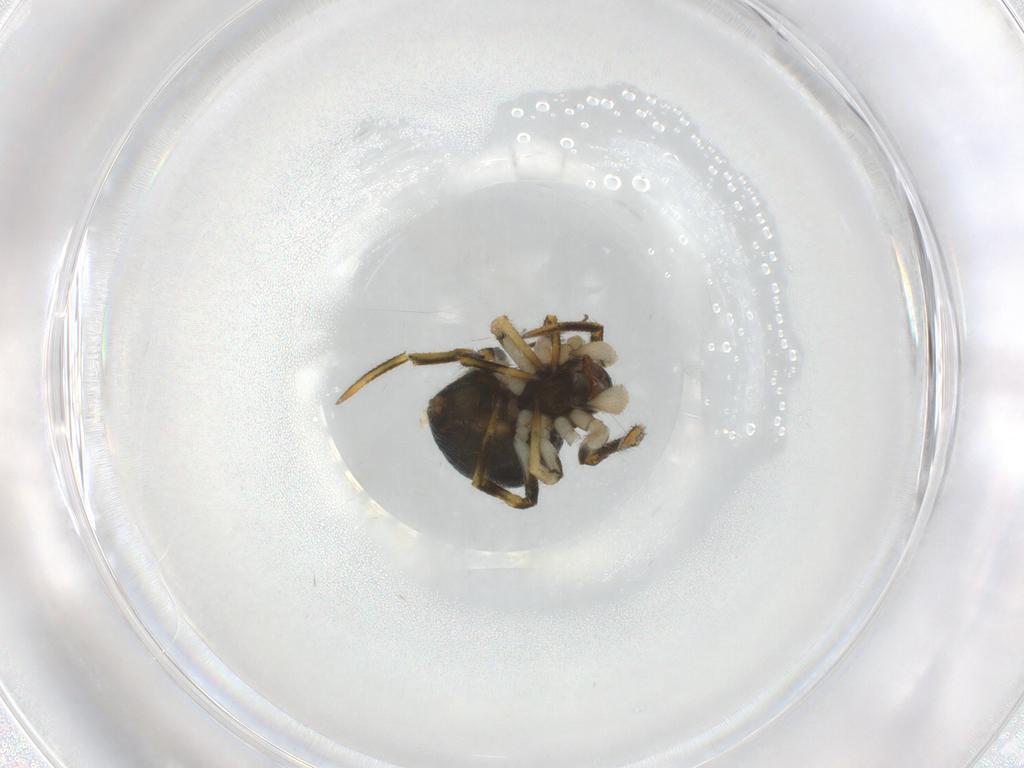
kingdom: Animalia
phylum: Arthropoda
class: Arachnida
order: Araneae
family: Theridiidae
